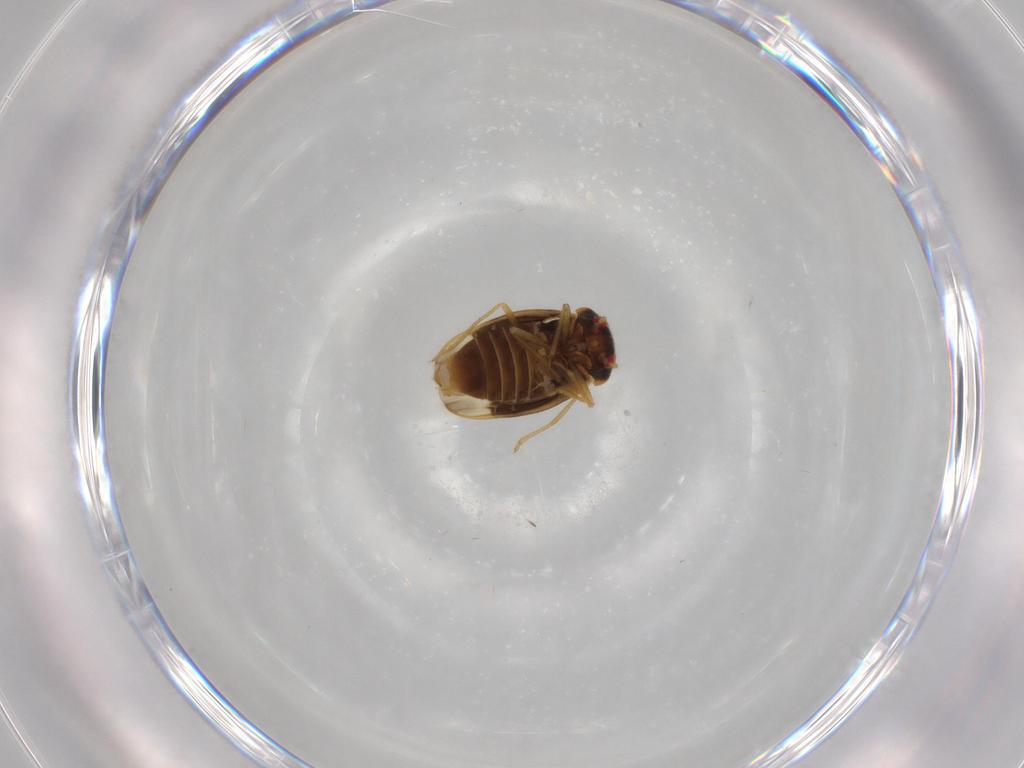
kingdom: Animalia
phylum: Arthropoda
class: Insecta
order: Hemiptera
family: Schizopteridae
